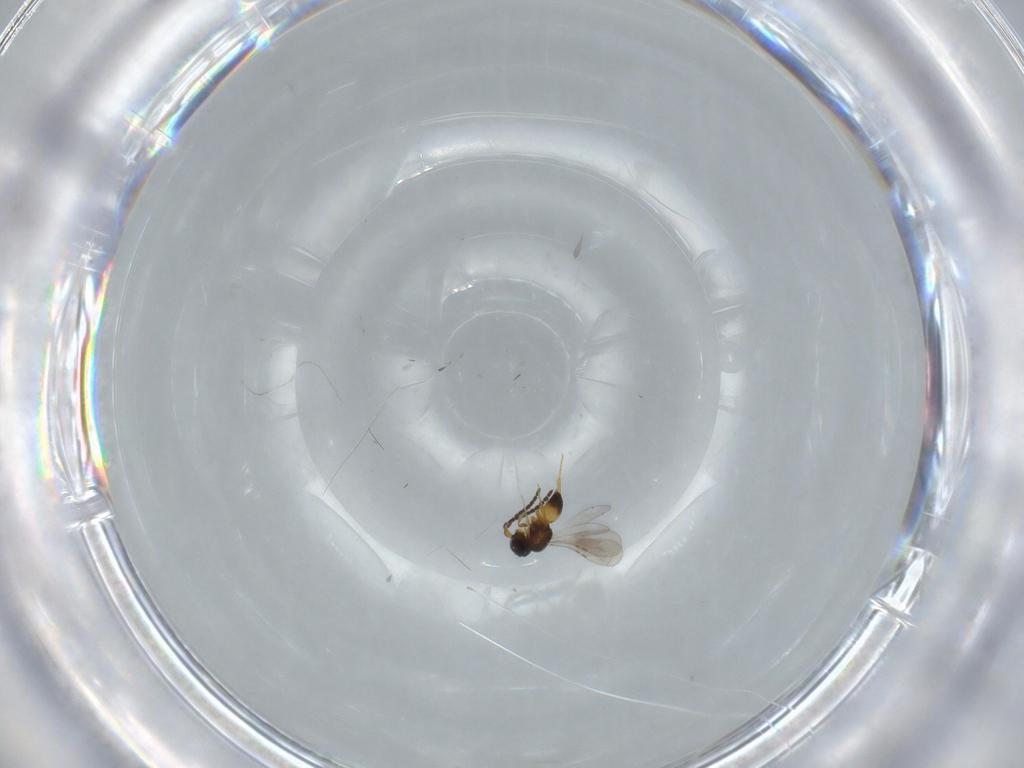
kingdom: Animalia
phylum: Arthropoda
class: Insecta
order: Hymenoptera
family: Ceraphronidae
